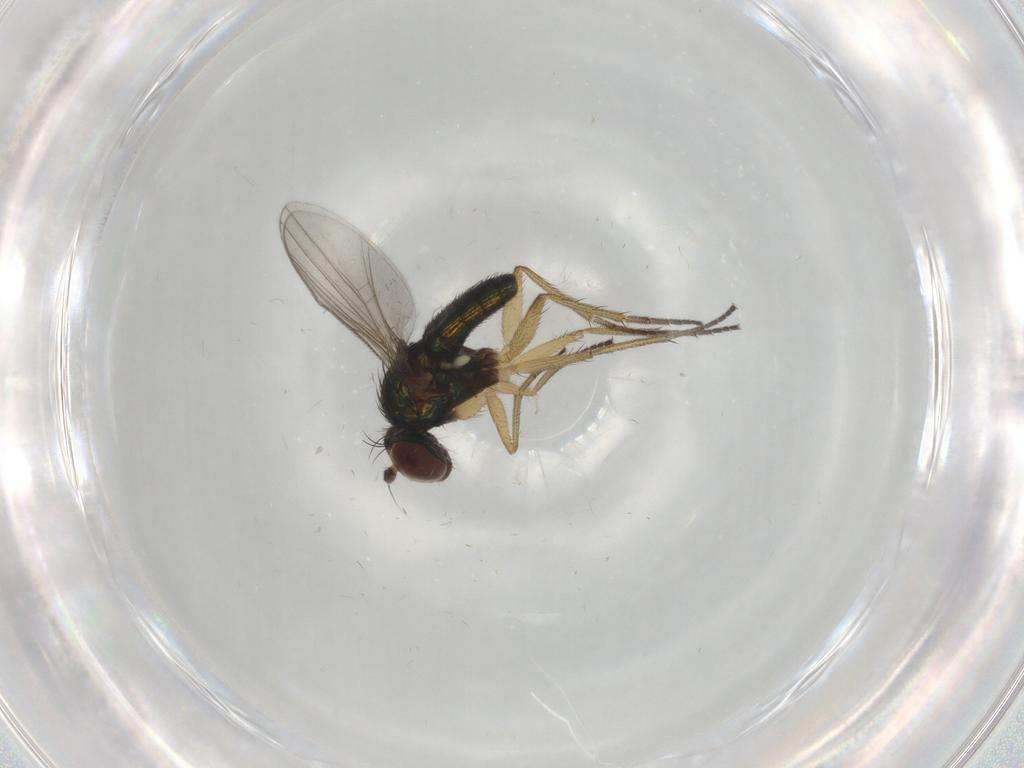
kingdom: Animalia
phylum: Arthropoda
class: Insecta
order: Diptera
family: Dolichopodidae
